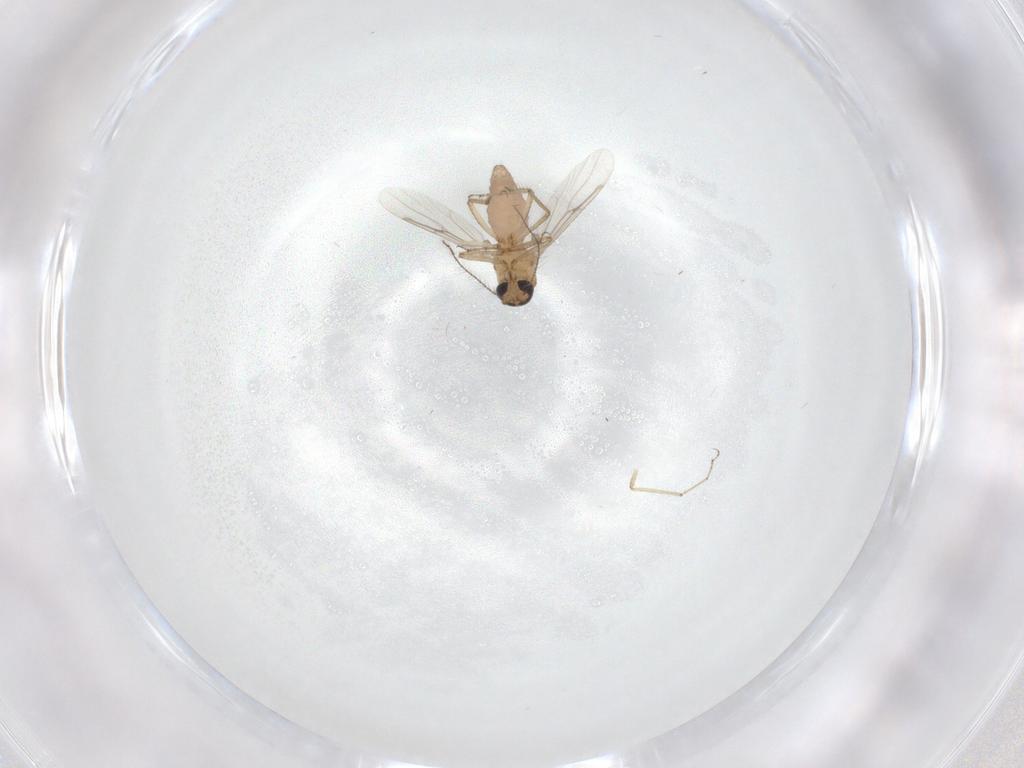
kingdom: Animalia
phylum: Arthropoda
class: Insecta
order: Diptera
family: Ceratopogonidae
